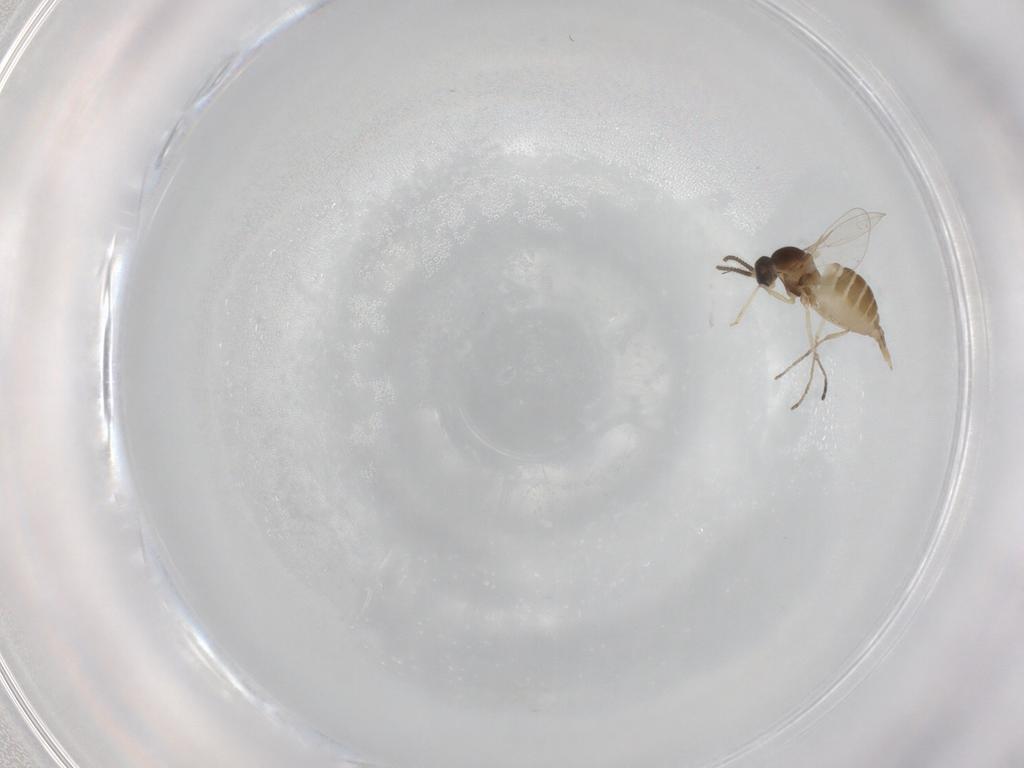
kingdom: Animalia
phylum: Arthropoda
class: Insecta
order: Diptera
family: Cecidomyiidae
